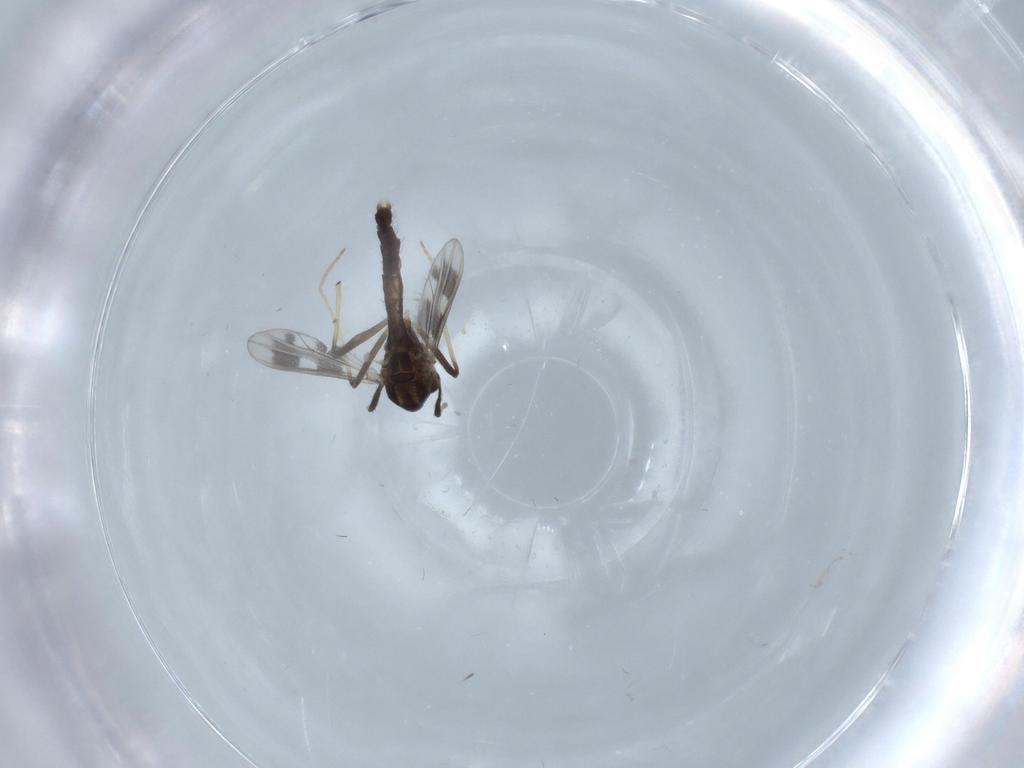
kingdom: Animalia
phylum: Arthropoda
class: Insecta
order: Diptera
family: Chironomidae
